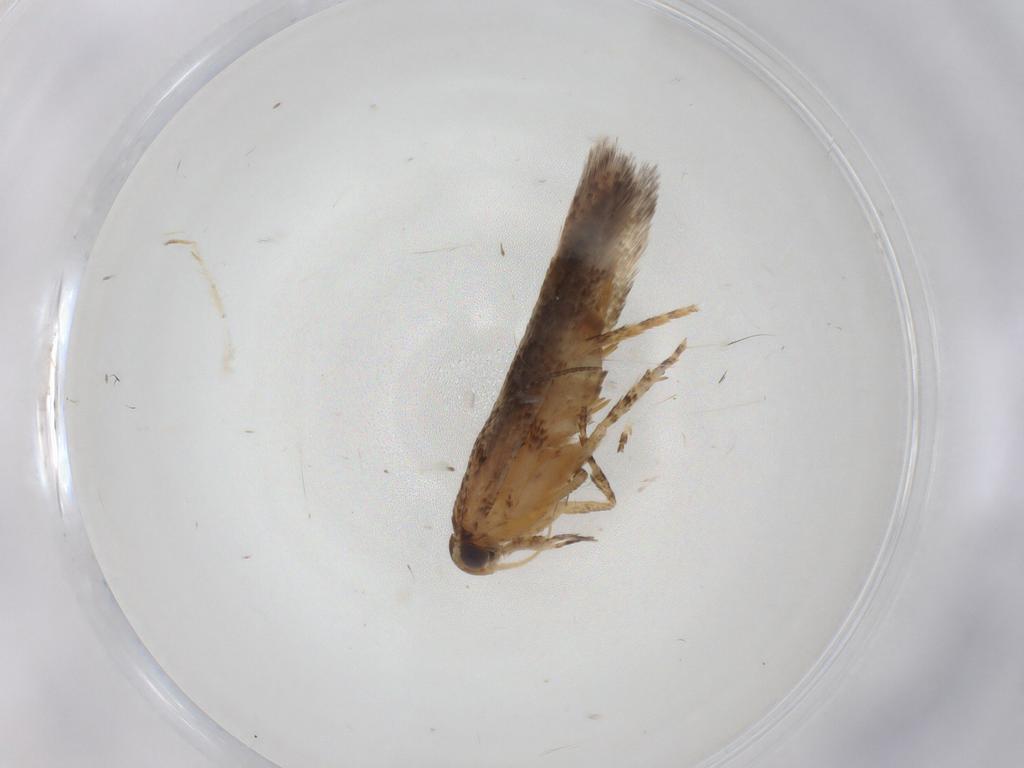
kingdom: Animalia
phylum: Arthropoda
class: Insecta
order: Lepidoptera
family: Gelechiidae
